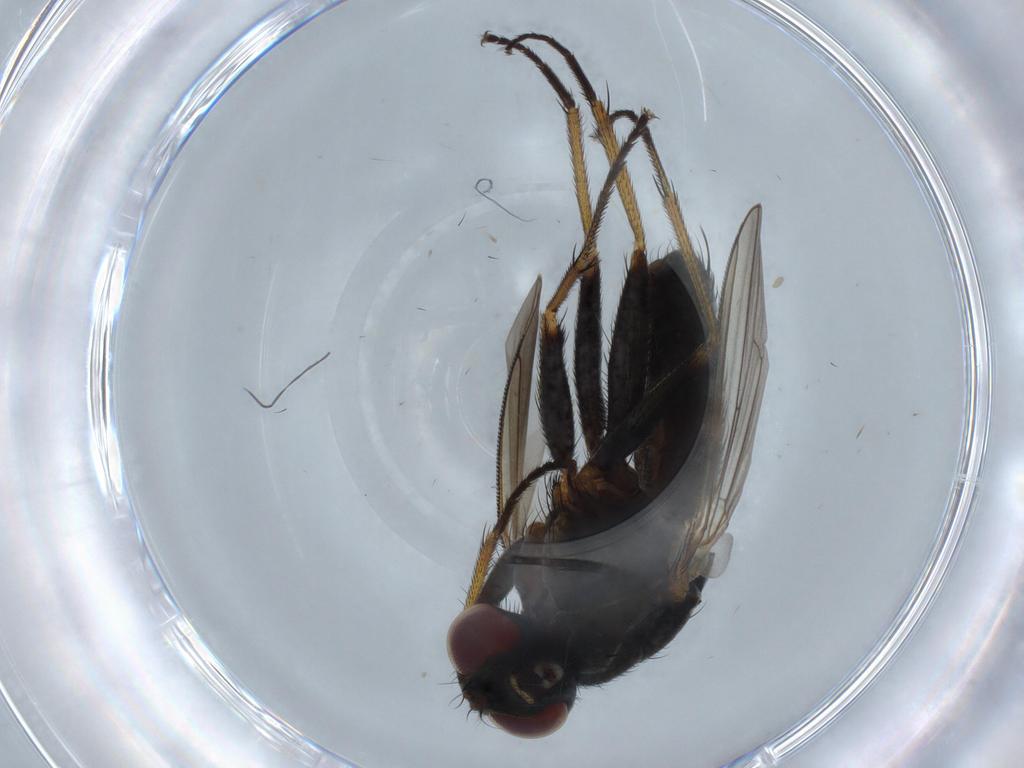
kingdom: Animalia
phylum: Arthropoda
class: Insecta
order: Diptera
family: Muscidae
